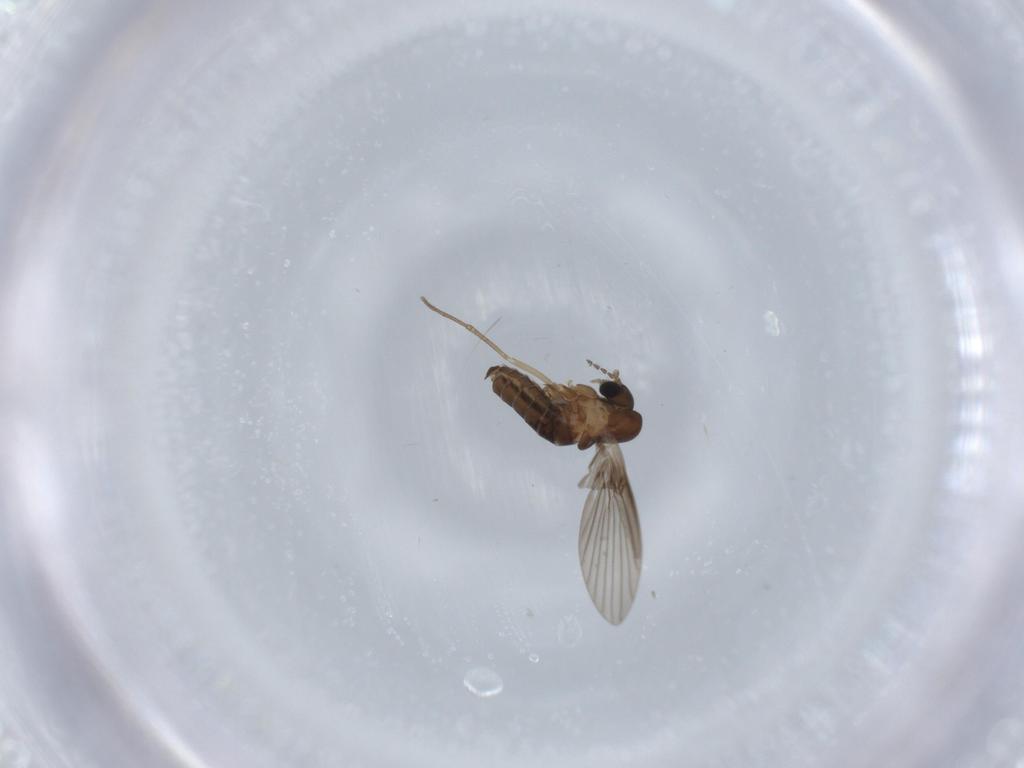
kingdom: Animalia
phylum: Arthropoda
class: Insecta
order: Diptera
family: Psychodidae
